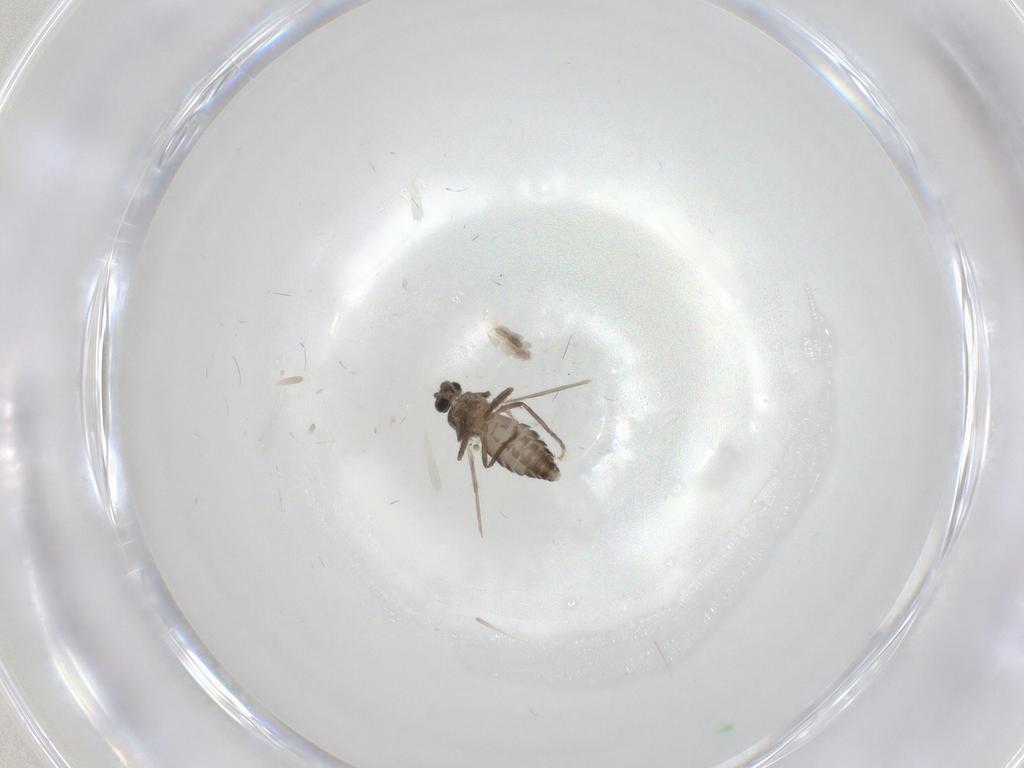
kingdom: Animalia
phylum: Arthropoda
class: Insecta
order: Diptera
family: Ceratopogonidae
